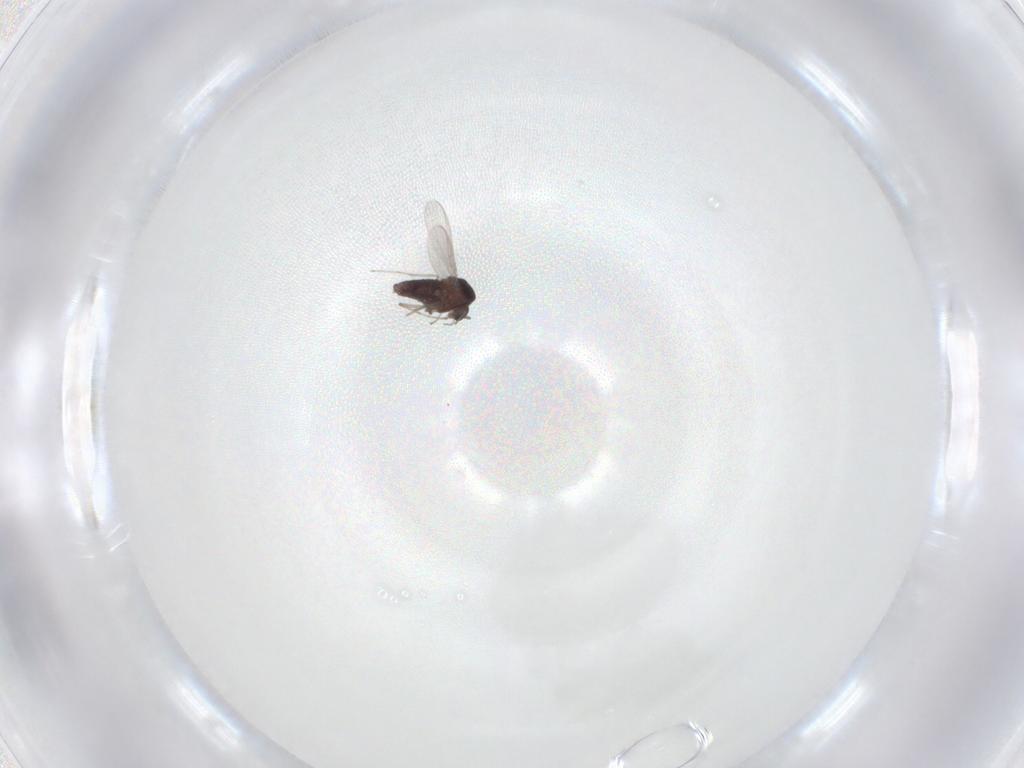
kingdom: Animalia
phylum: Arthropoda
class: Insecta
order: Diptera
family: Chironomidae
